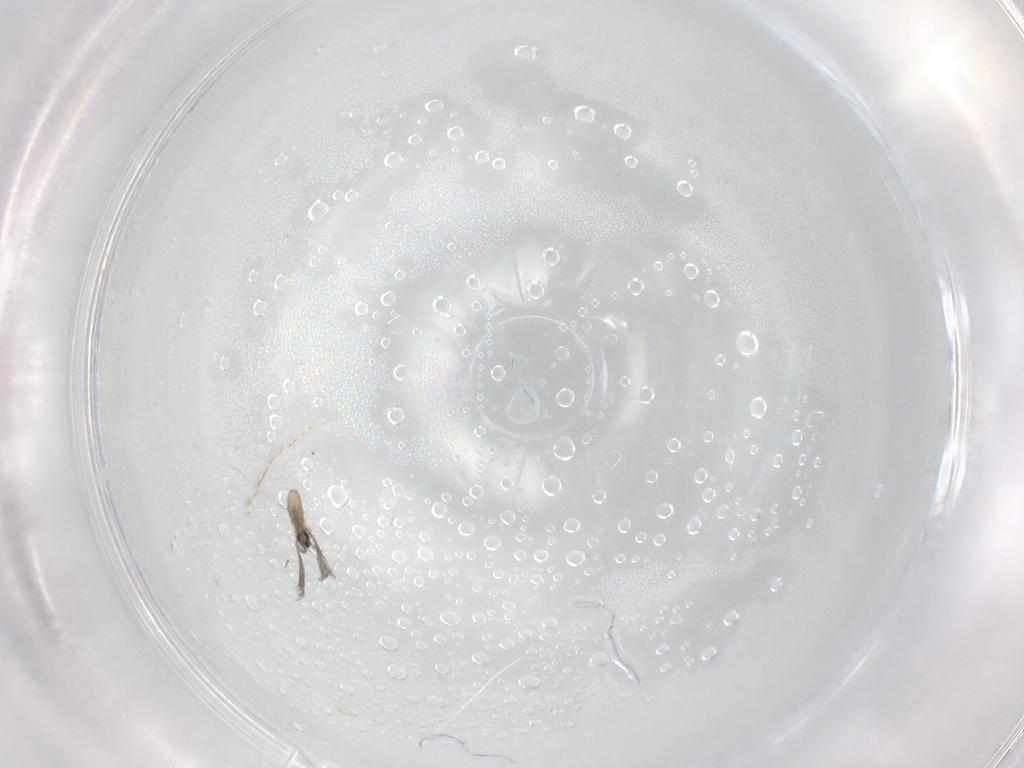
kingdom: Animalia
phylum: Arthropoda
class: Insecta
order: Diptera
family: Cecidomyiidae
